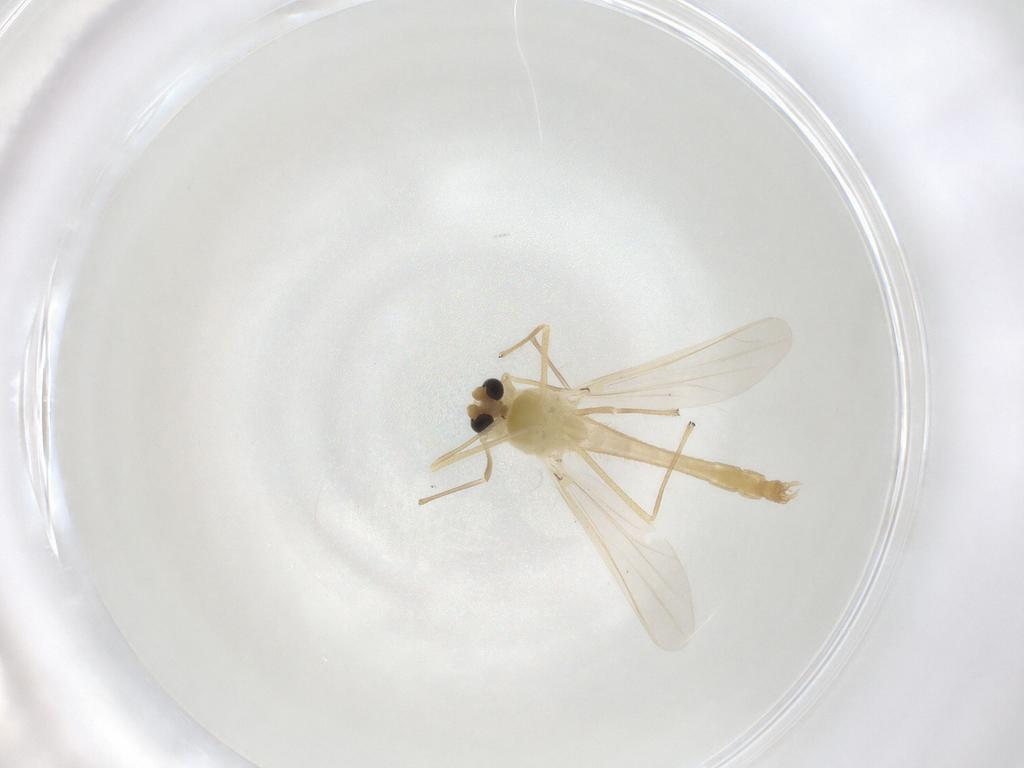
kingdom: Animalia
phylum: Arthropoda
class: Insecta
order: Diptera
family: Chironomidae
